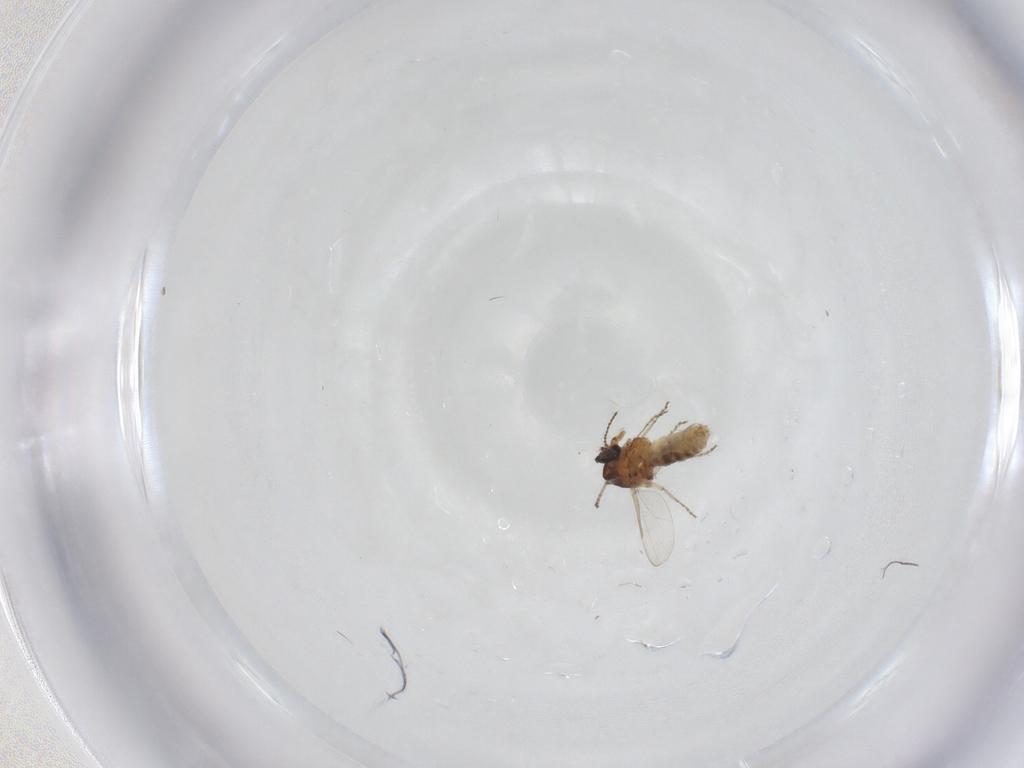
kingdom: Animalia
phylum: Arthropoda
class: Insecta
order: Diptera
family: Ceratopogonidae
